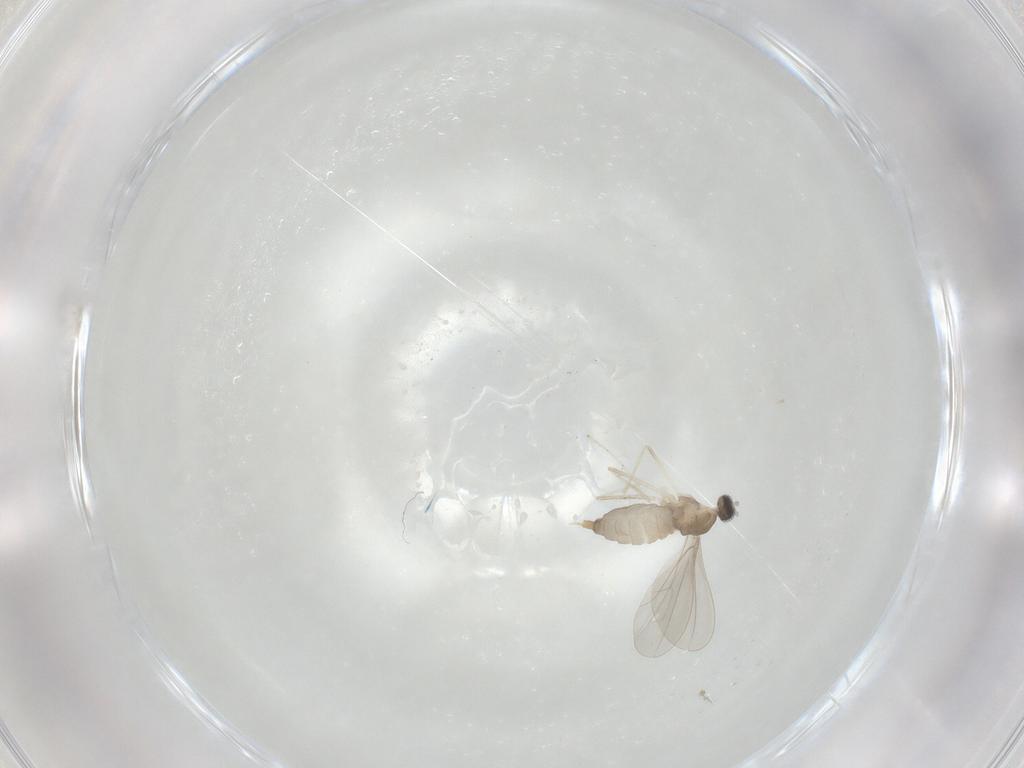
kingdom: Animalia
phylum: Arthropoda
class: Insecta
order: Diptera
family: Cecidomyiidae
